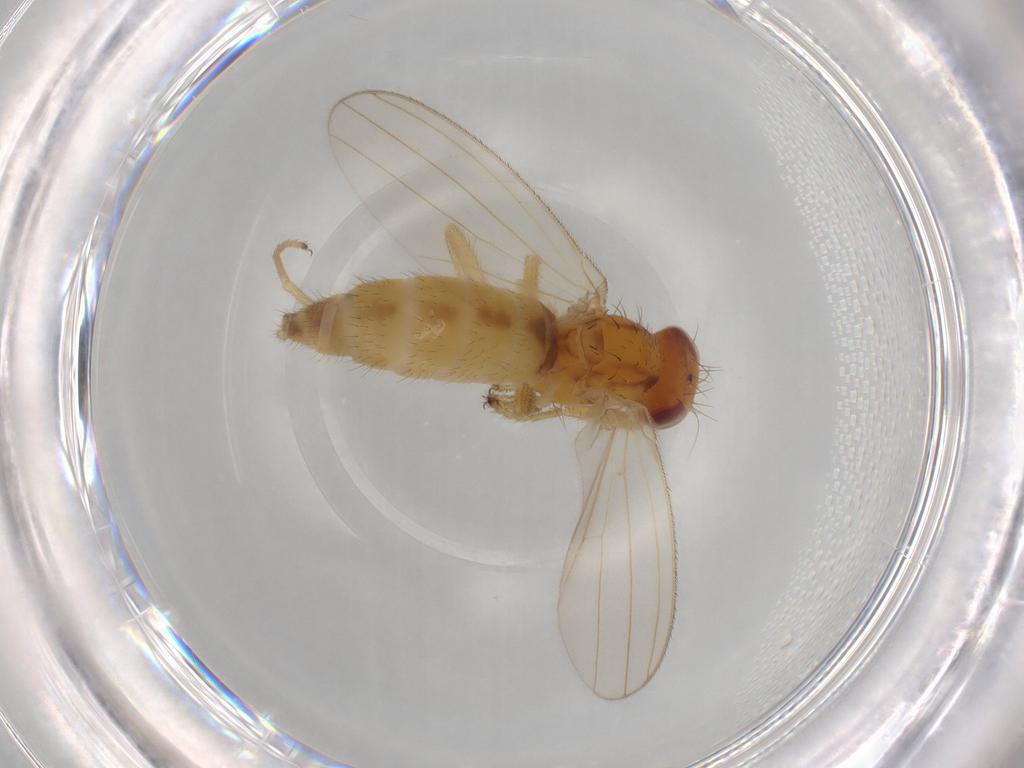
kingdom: Animalia
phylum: Arthropoda
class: Insecta
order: Diptera
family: Anthomyzidae
